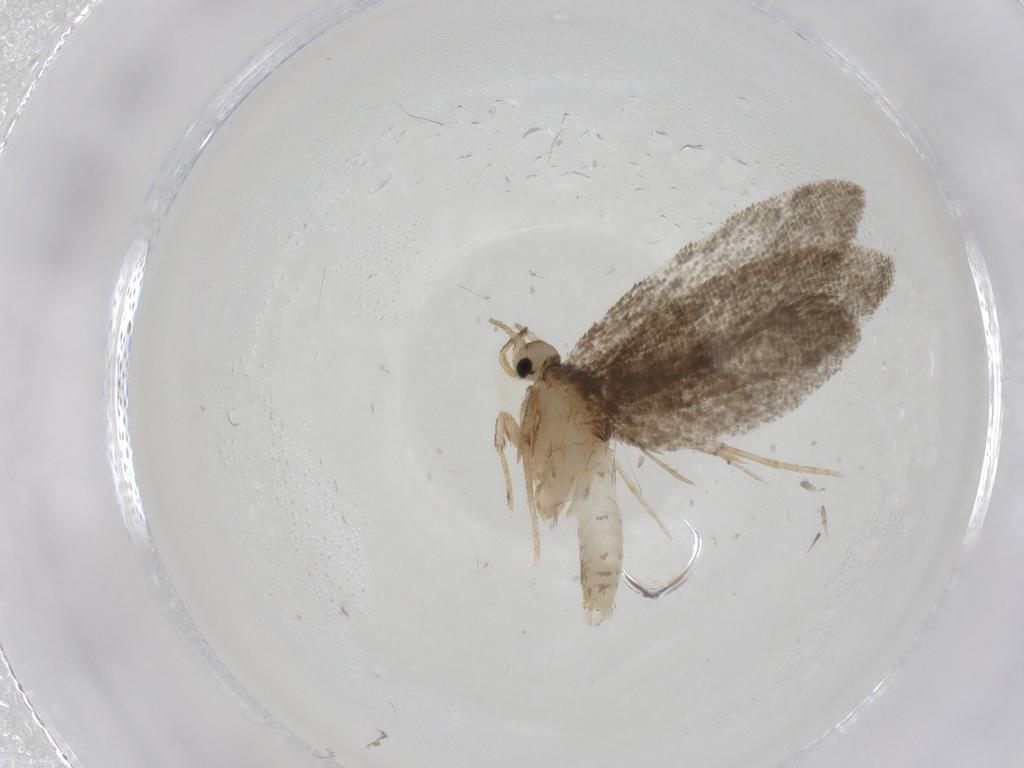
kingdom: Animalia
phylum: Arthropoda
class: Insecta
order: Lepidoptera
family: Psychidae
